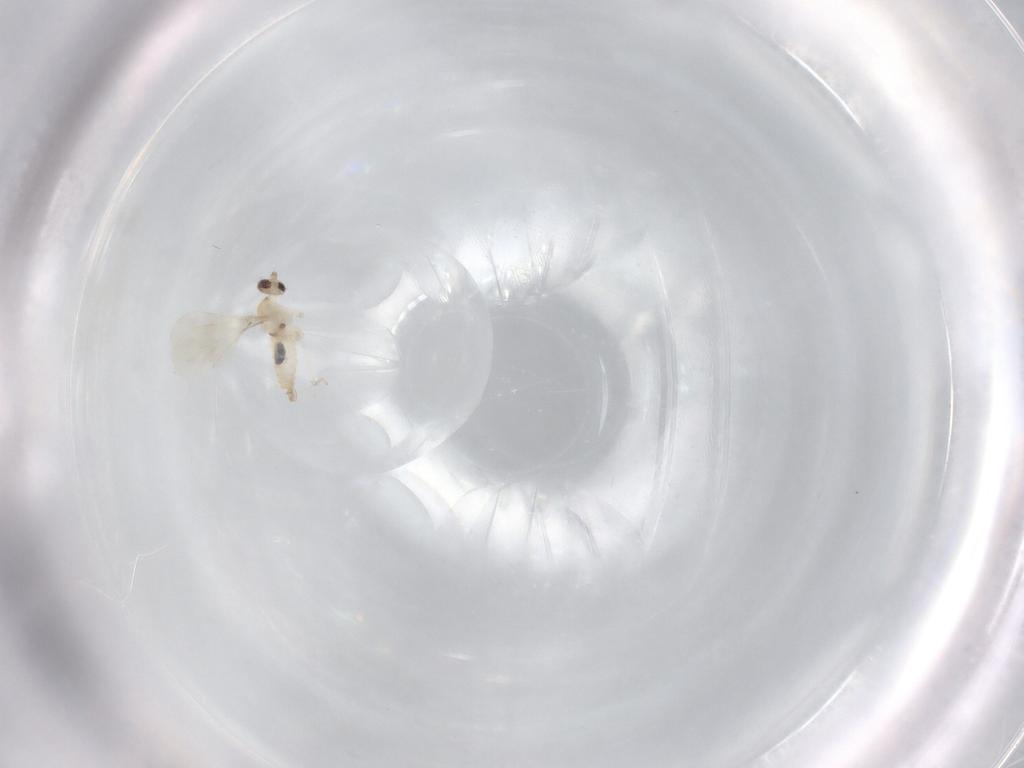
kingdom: Animalia
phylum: Arthropoda
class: Insecta
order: Diptera
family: Cecidomyiidae
